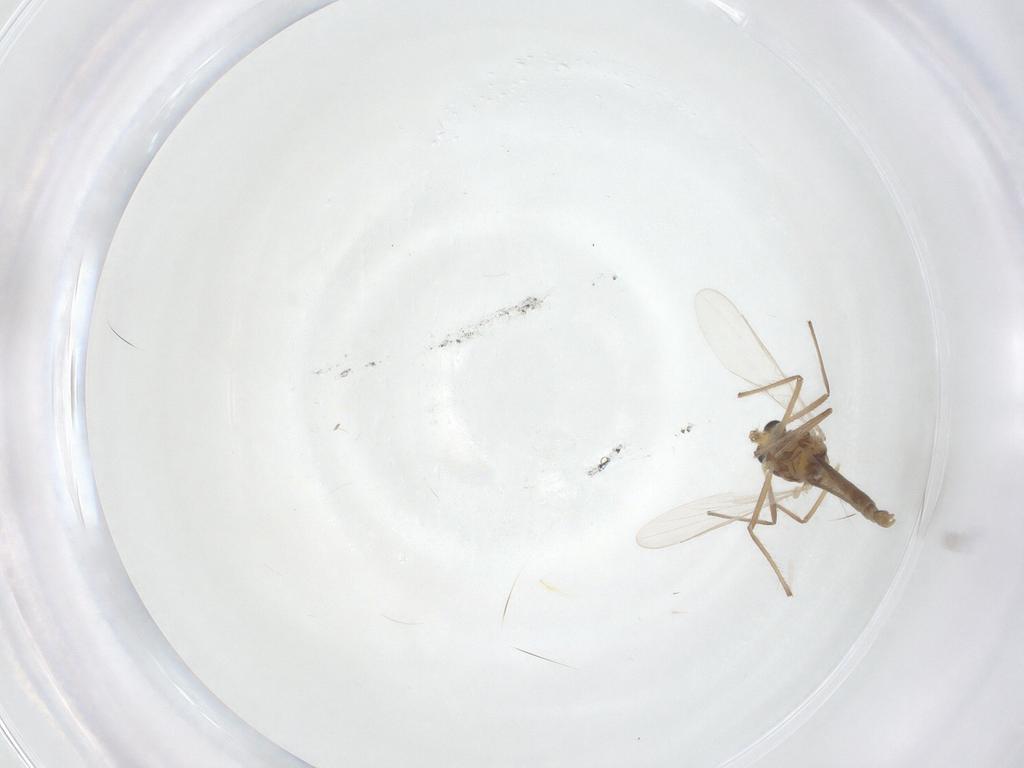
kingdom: Animalia
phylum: Arthropoda
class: Insecta
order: Diptera
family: Chironomidae
